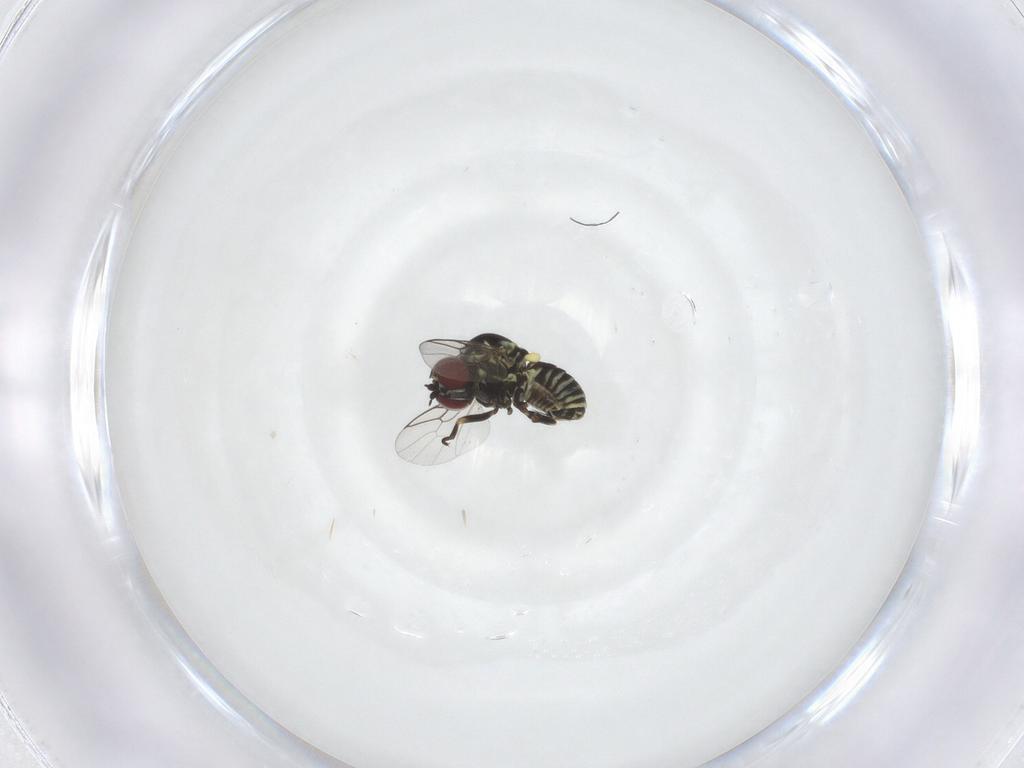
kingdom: Animalia
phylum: Arthropoda
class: Insecta
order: Diptera
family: Mythicomyiidae
